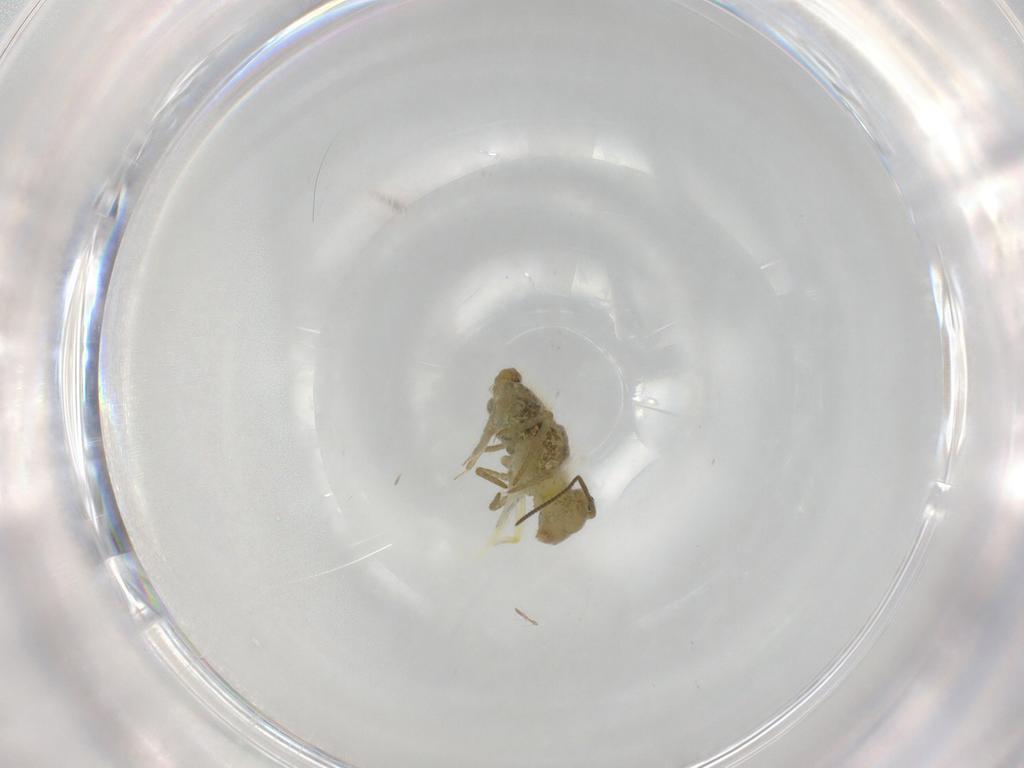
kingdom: Animalia
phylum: Arthropoda
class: Collembola
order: Symphypleona
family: Sminthuridae
